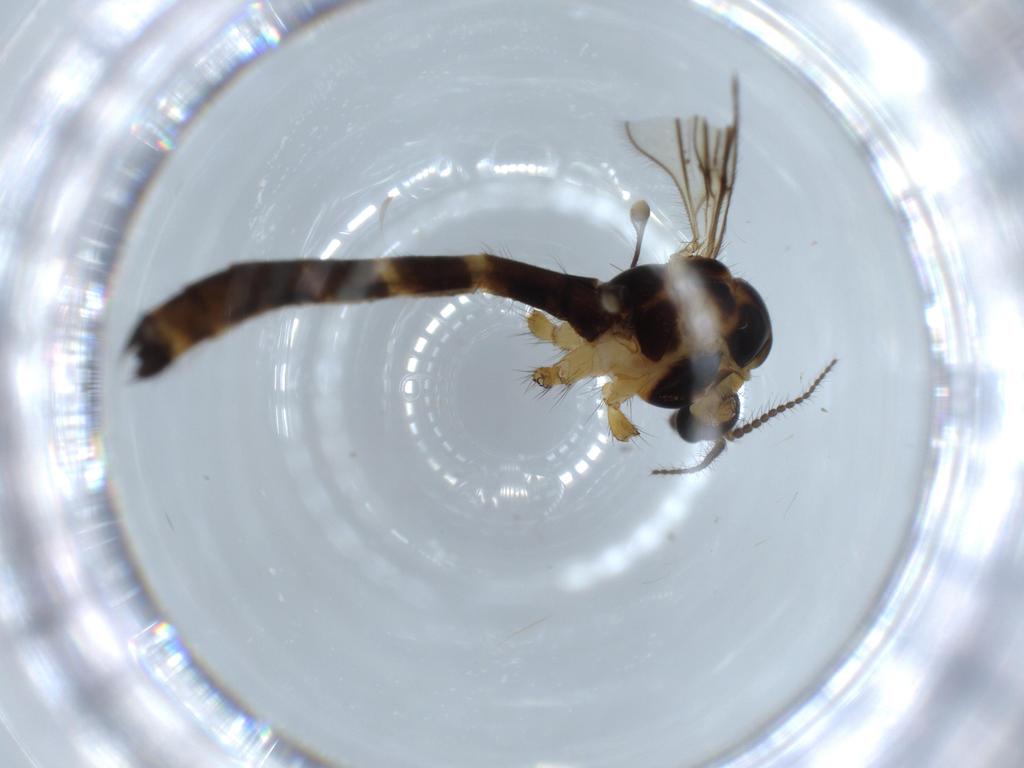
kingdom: Animalia
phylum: Arthropoda
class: Insecta
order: Diptera
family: Limoniidae
